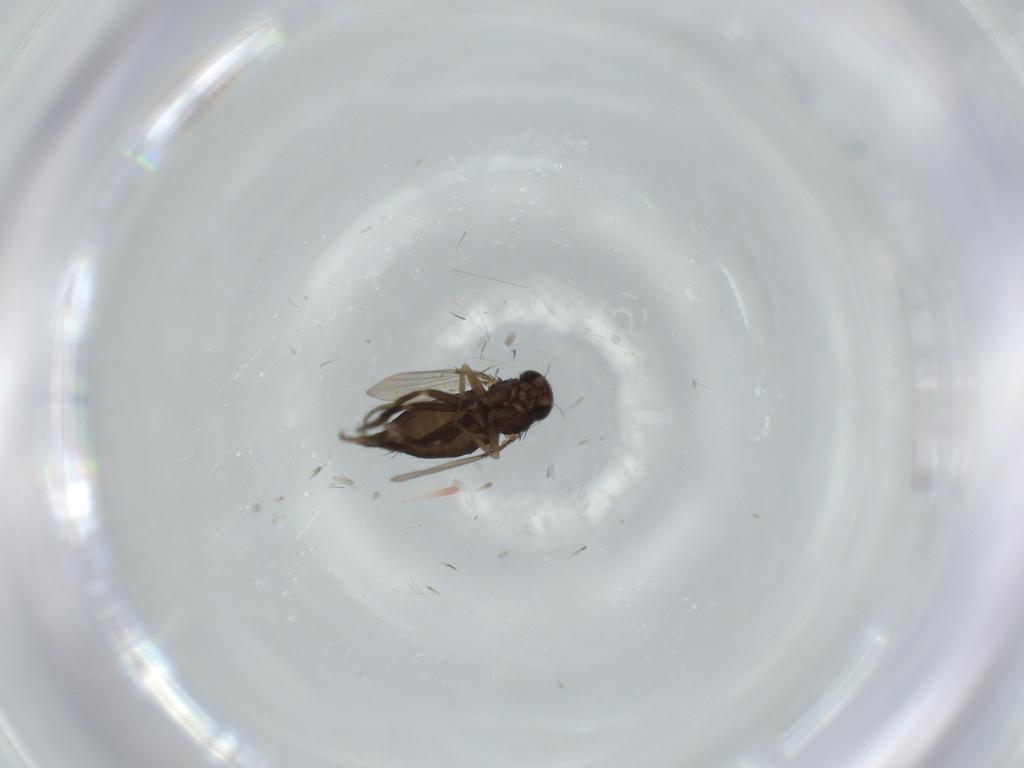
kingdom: Animalia
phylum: Arthropoda
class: Insecta
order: Diptera
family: Phoridae
